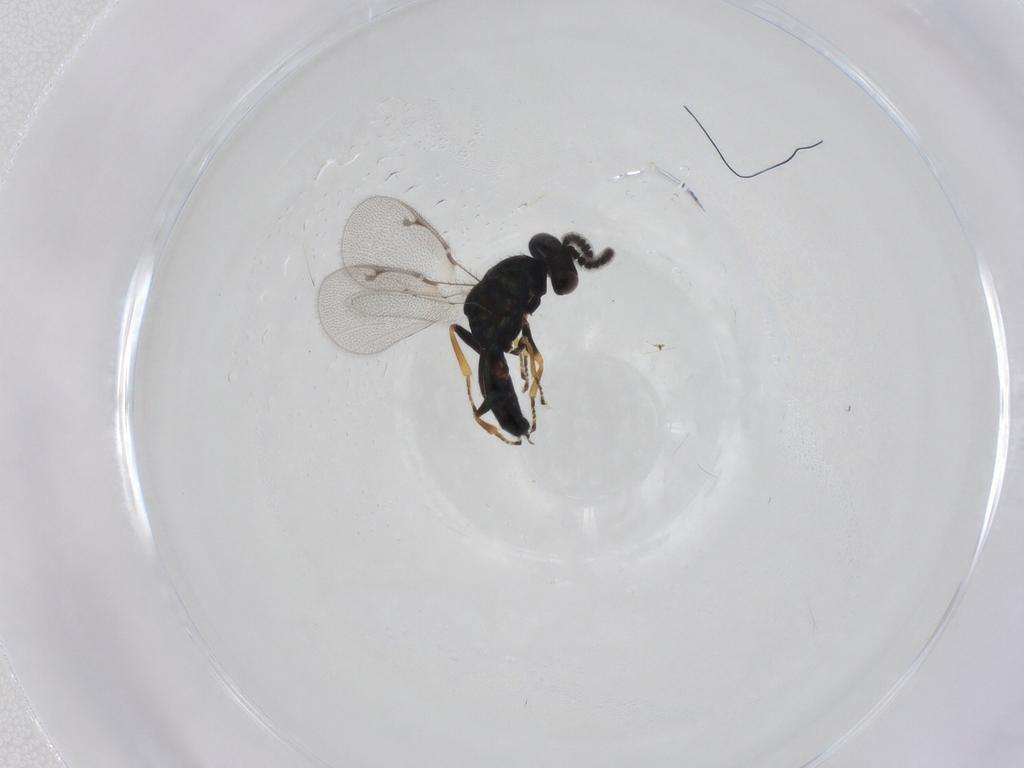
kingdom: Animalia
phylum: Arthropoda
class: Insecta
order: Hymenoptera
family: Pteromalidae
